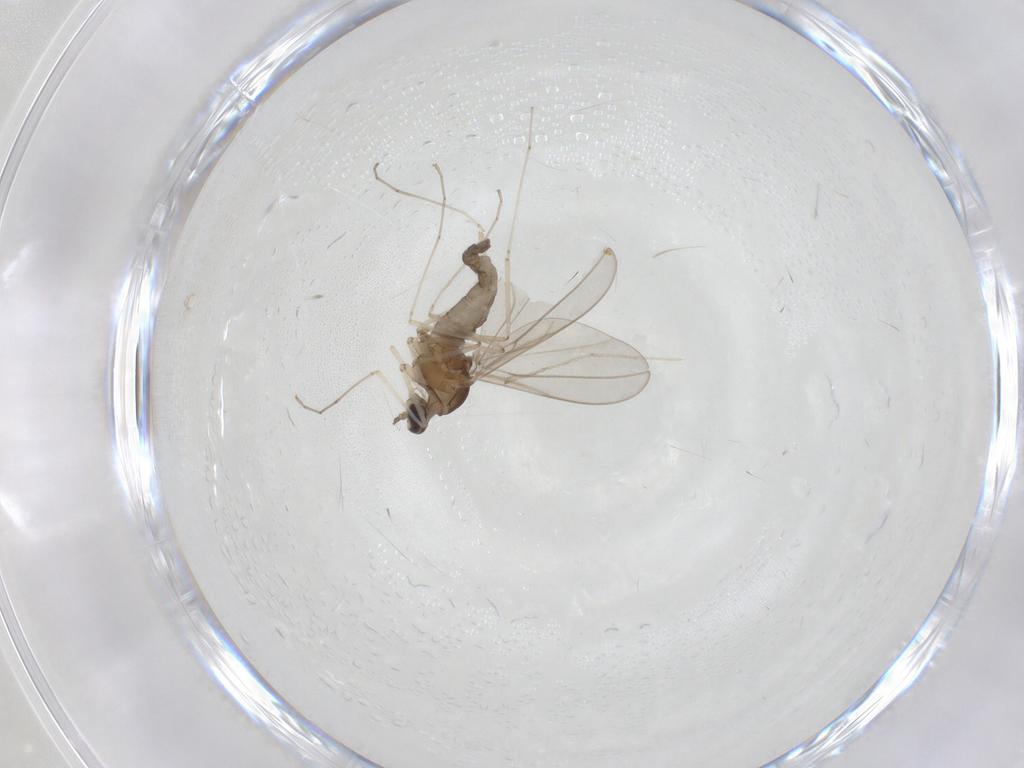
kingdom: Animalia
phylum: Arthropoda
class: Insecta
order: Diptera
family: Cecidomyiidae
